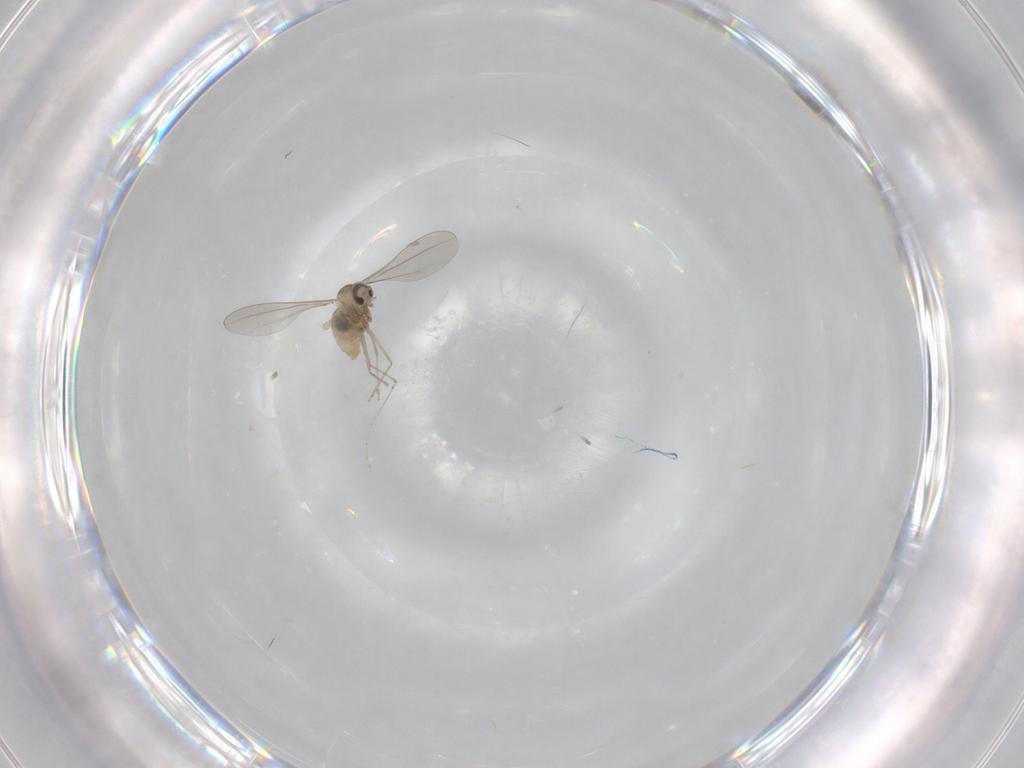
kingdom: Animalia
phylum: Arthropoda
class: Insecta
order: Diptera
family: Cecidomyiidae
